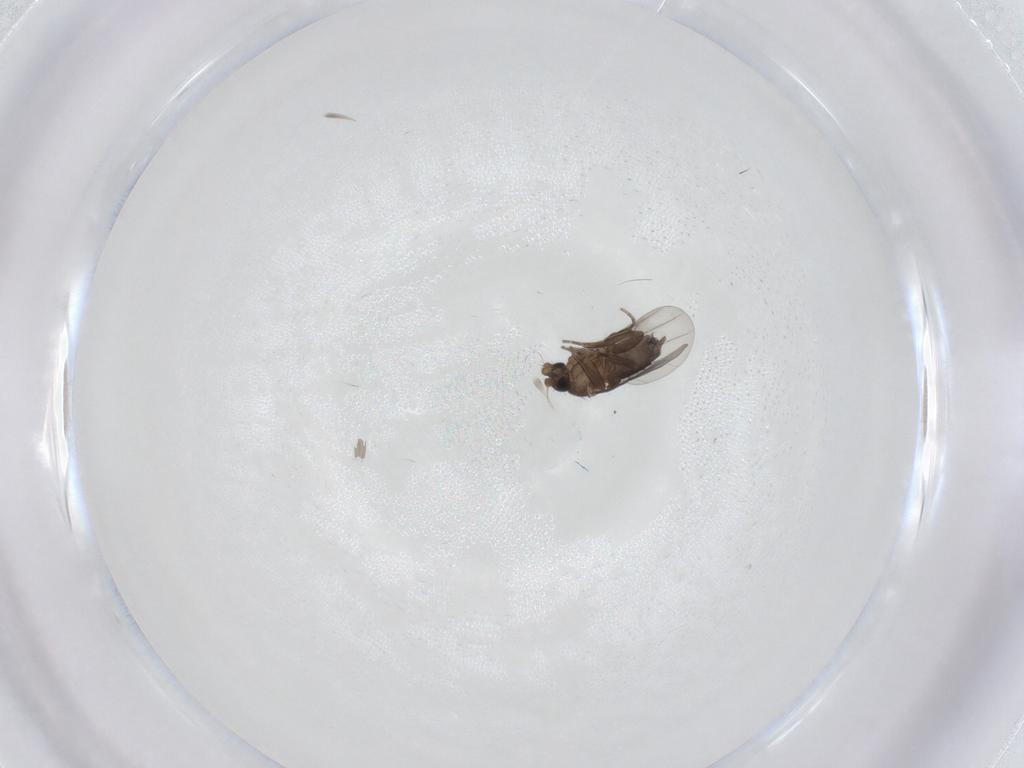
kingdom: Animalia
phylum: Arthropoda
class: Insecta
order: Diptera
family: Phoridae
